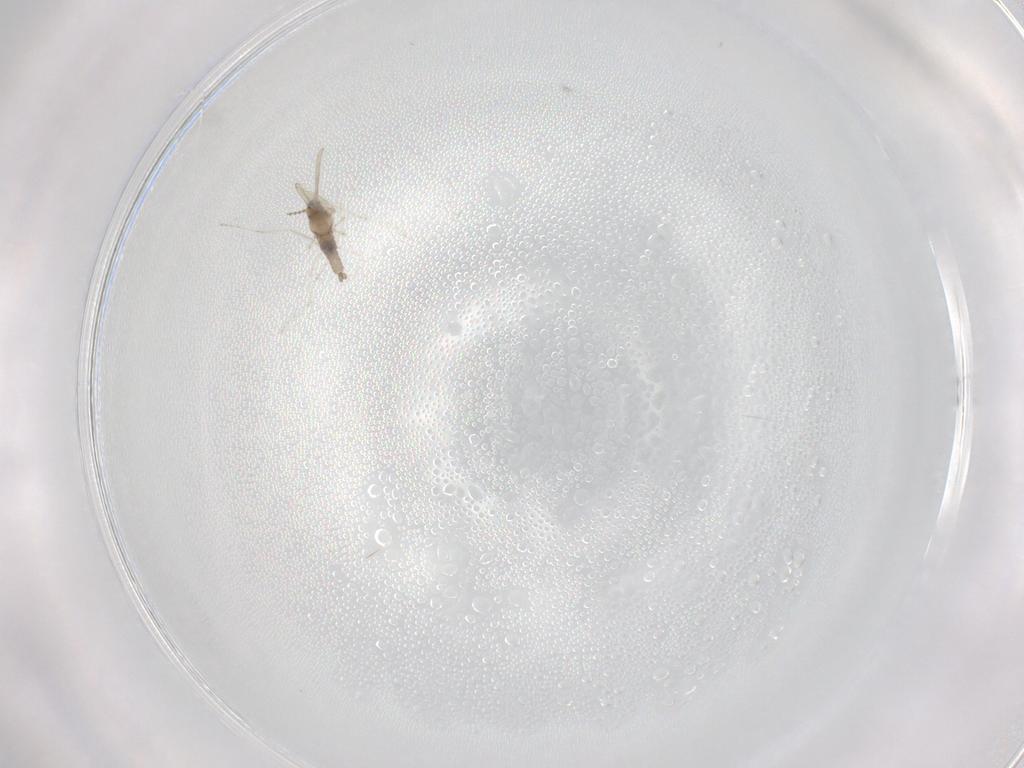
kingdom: Animalia
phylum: Arthropoda
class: Insecta
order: Diptera
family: Cecidomyiidae
